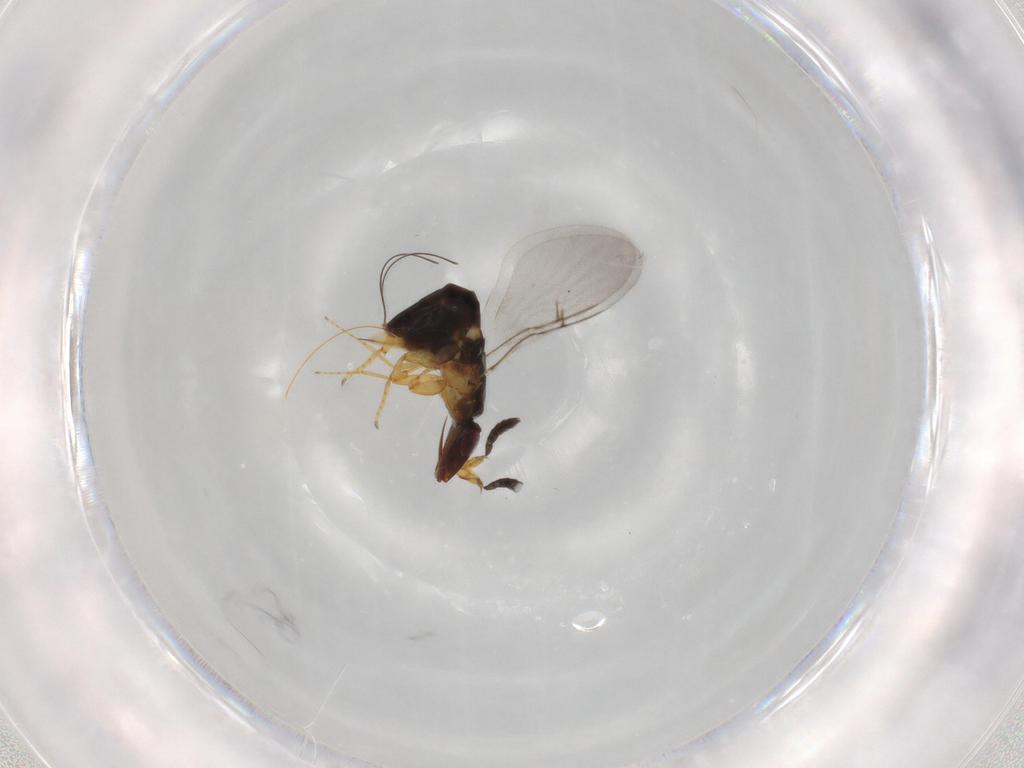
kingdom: Animalia
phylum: Arthropoda
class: Insecta
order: Hymenoptera
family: Agaonidae
